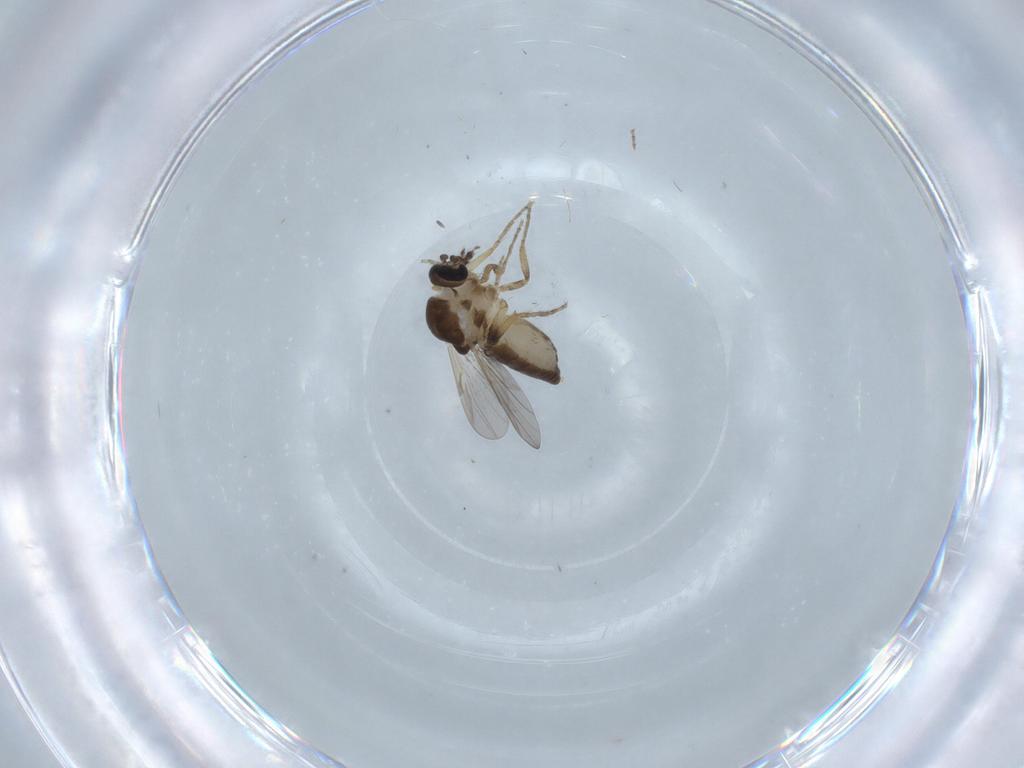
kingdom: Animalia
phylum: Arthropoda
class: Insecta
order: Diptera
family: Ceratopogonidae
